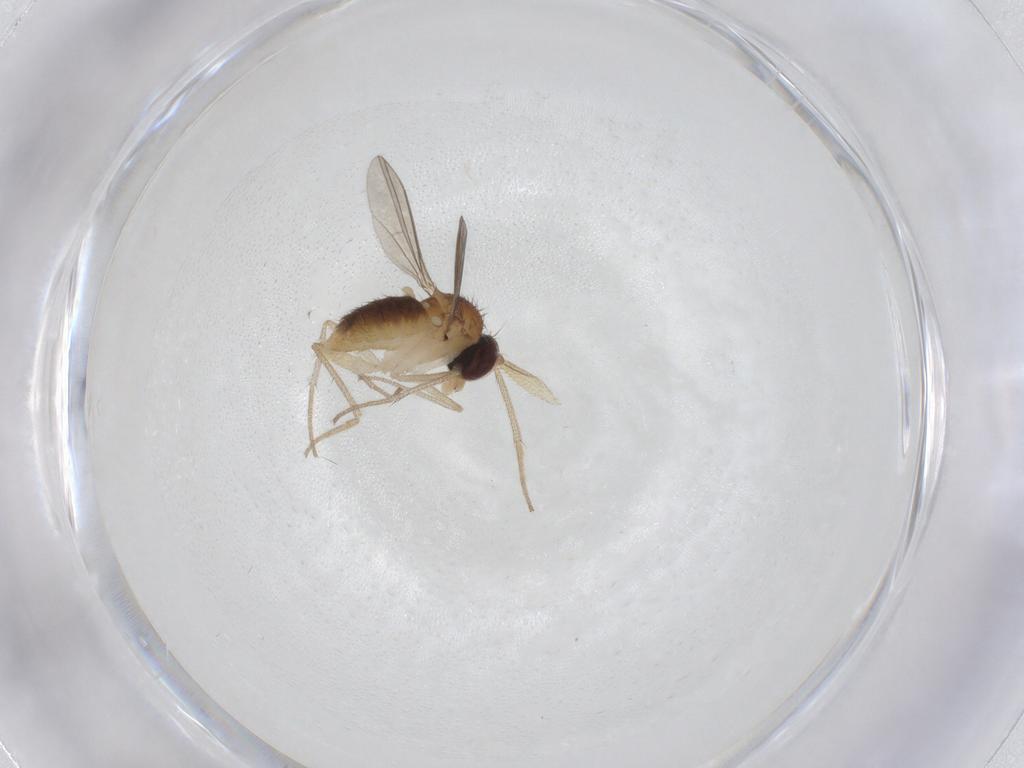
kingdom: Animalia
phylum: Arthropoda
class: Insecta
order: Diptera
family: Dolichopodidae
